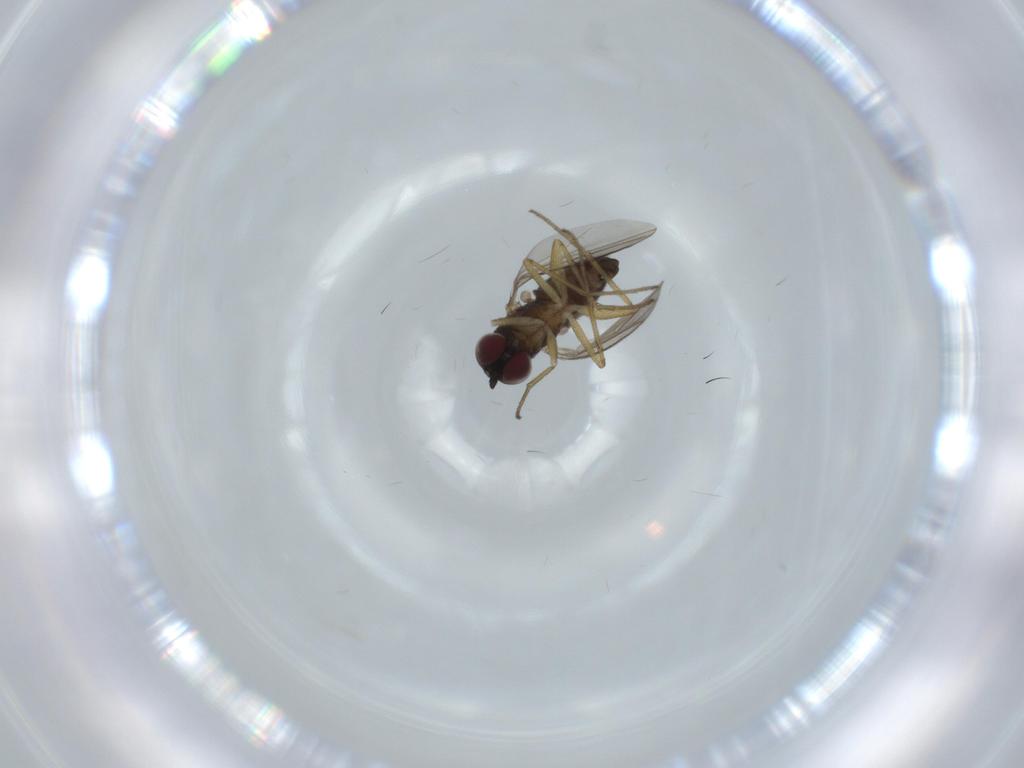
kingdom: Animalia
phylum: Arthropoda
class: Insecta
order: Diptera
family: Dolichopodidae
